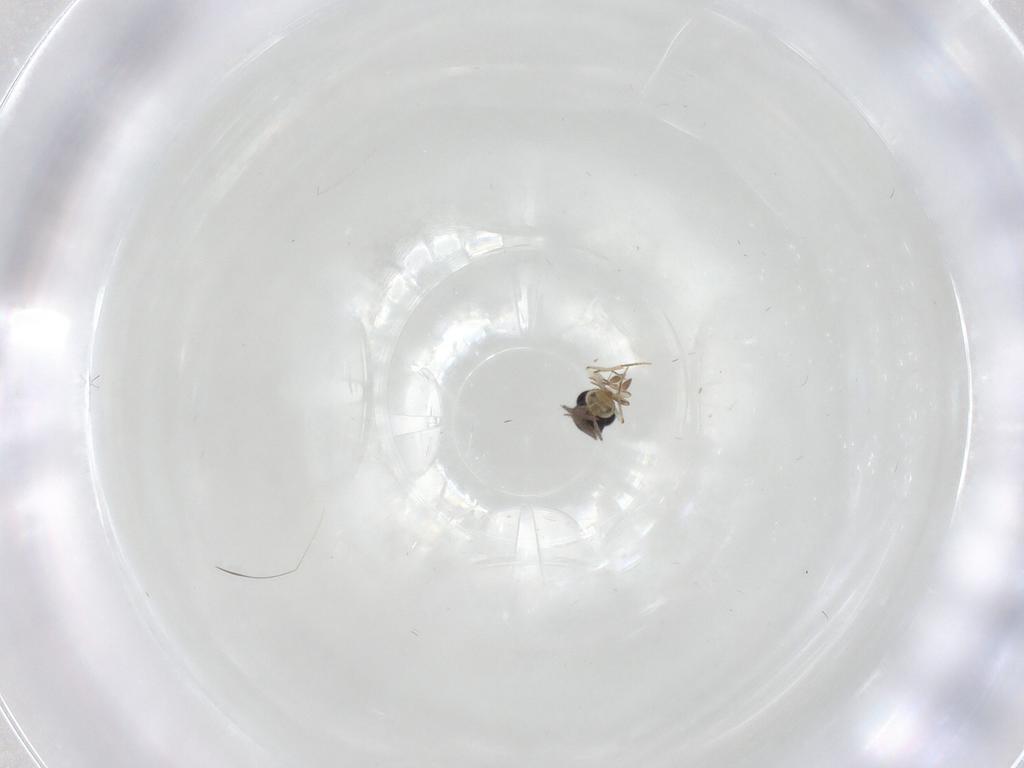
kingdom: Animalia
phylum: Arthropoda
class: Insecta
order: Hymenoptera
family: Scelionidae
